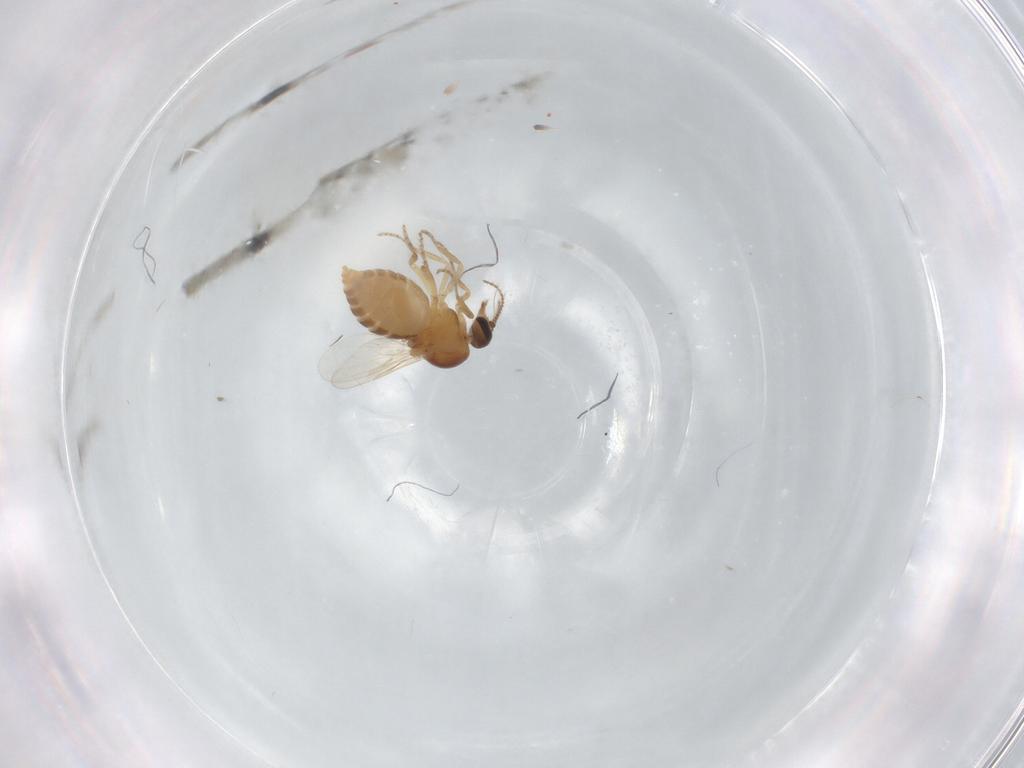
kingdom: Animalia
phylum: Arthropoda
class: Insecta
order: Diptera
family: Ceratopogonidae
